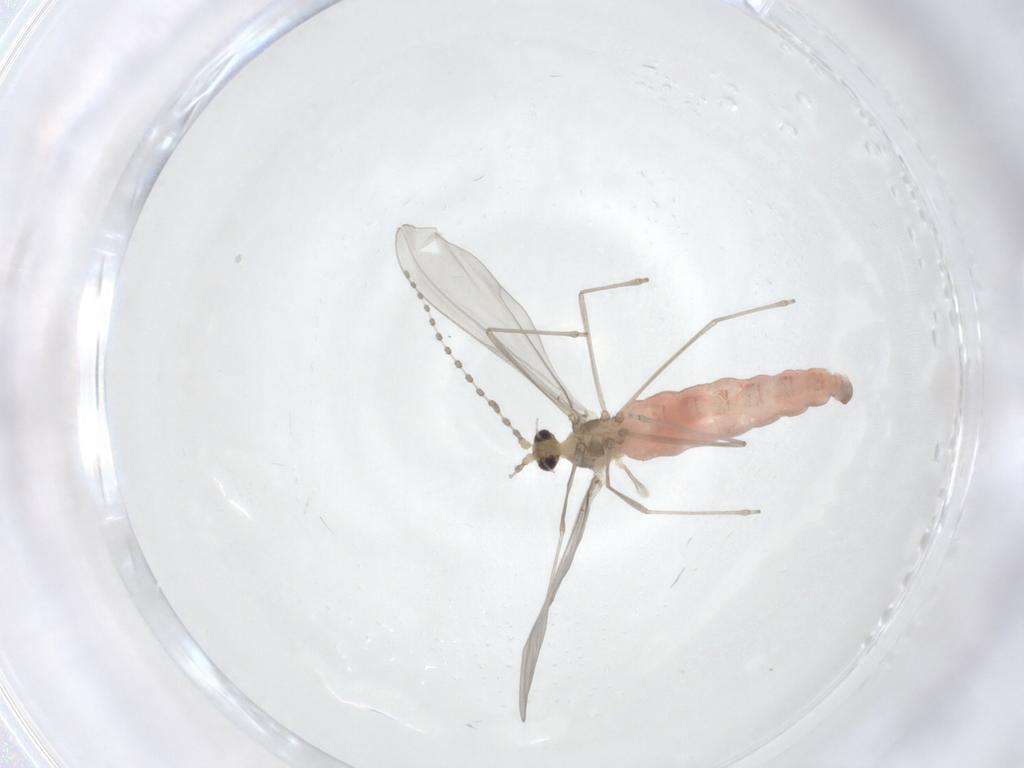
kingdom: Animalia
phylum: Arthropoda
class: Insecta
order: Diptera
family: Cecidomyiidae
